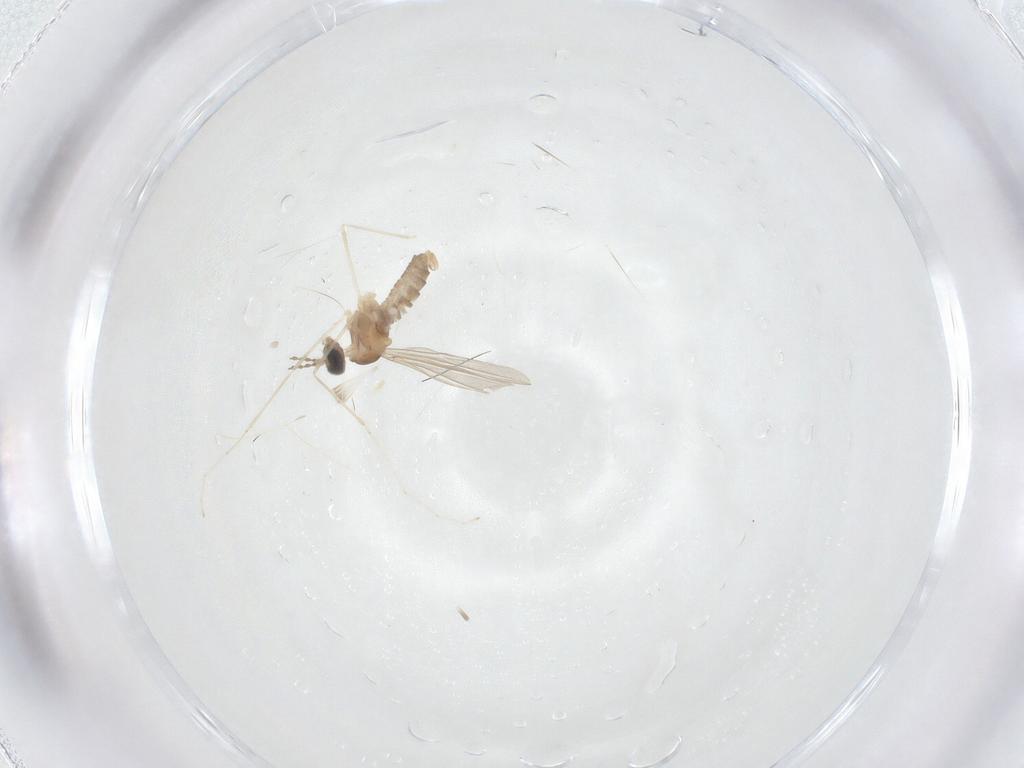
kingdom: Animalia
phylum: Arthropoda
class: Insecta
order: Diptera
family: Cecidomyiidae
